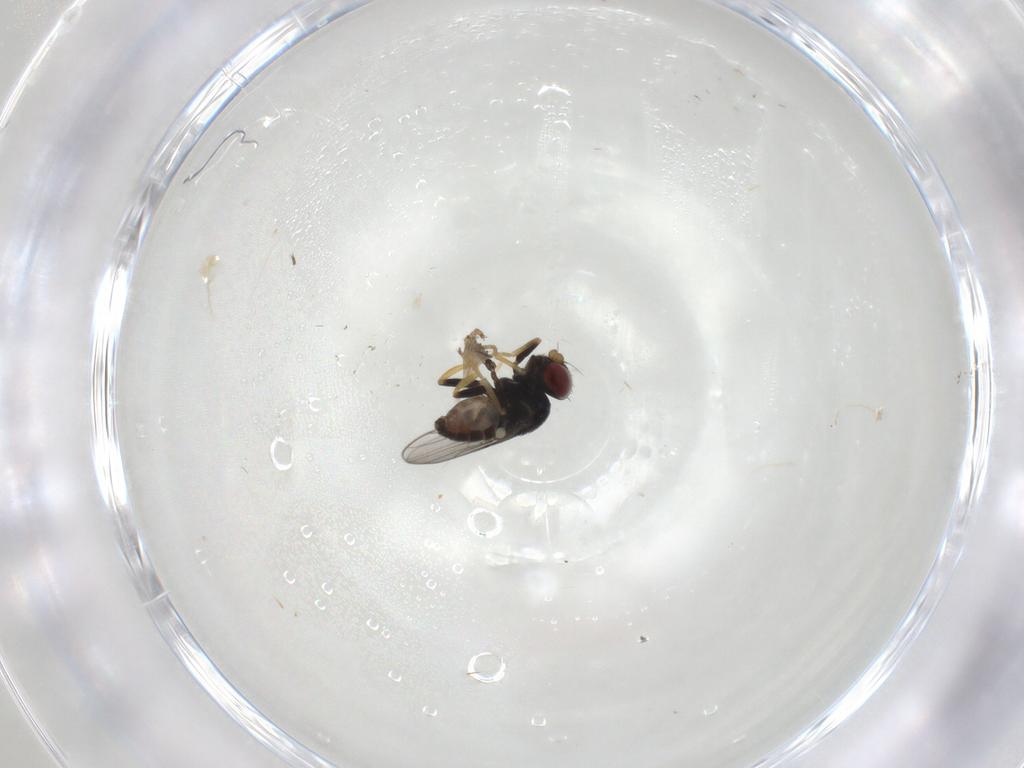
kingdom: Animalia
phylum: Arthropoda
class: Insecta
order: Diptera
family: Chloropidae
